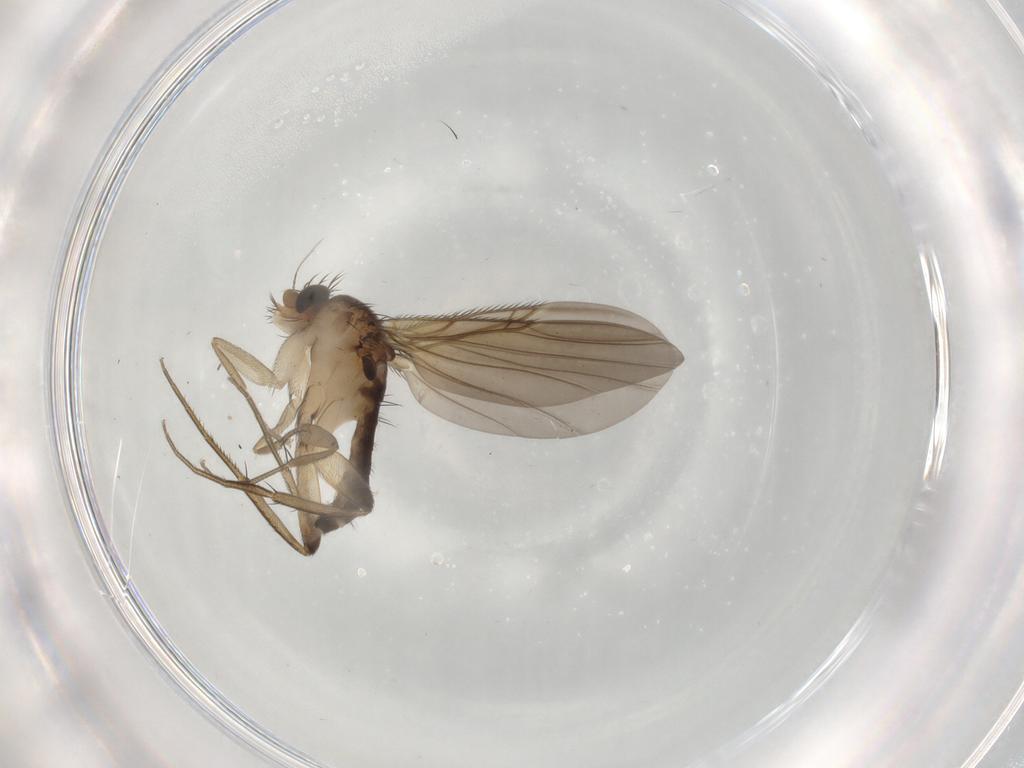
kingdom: Animalia
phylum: Arthropoda
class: Insecta
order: Diptera
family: Phoridae
